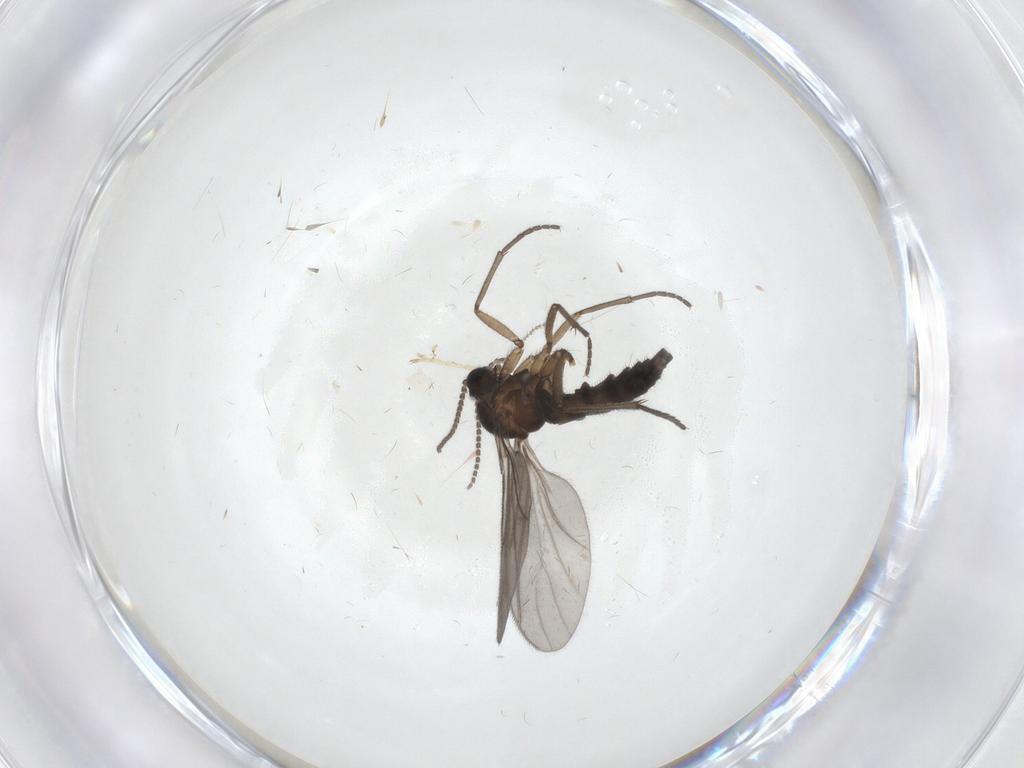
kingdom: Animalia
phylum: Arthropoda
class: Insecta
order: Diptera
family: Sciaridae
